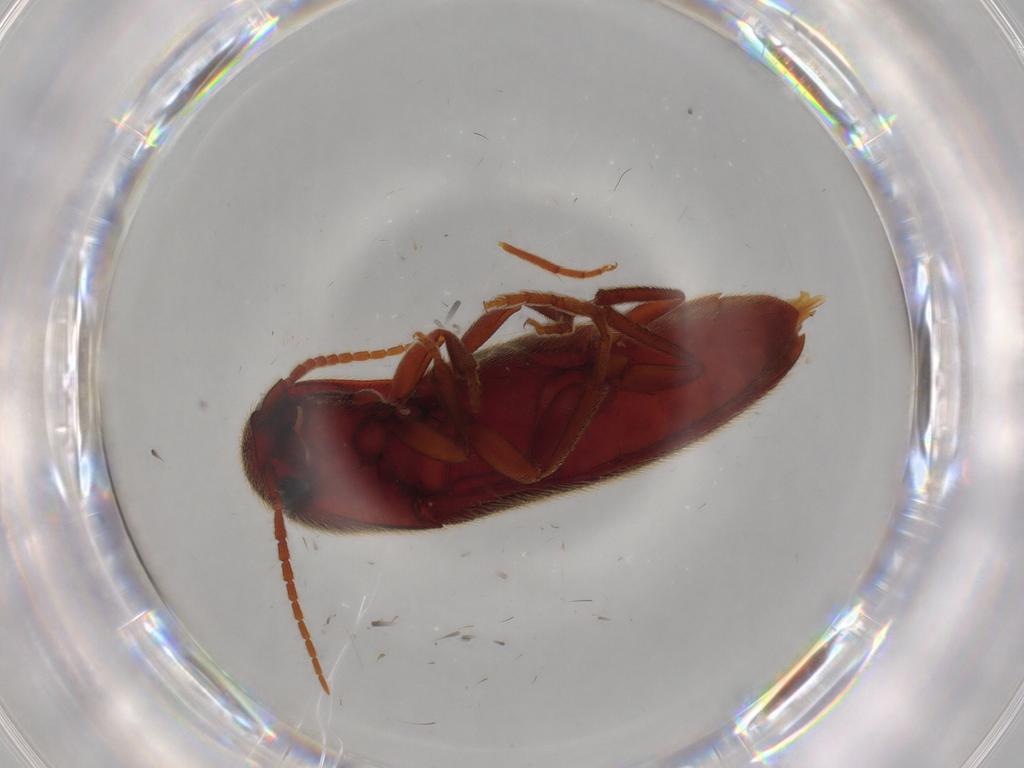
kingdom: Animalia
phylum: Arthropoda
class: Insecta
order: Coleoptera
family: Eucnemidae
